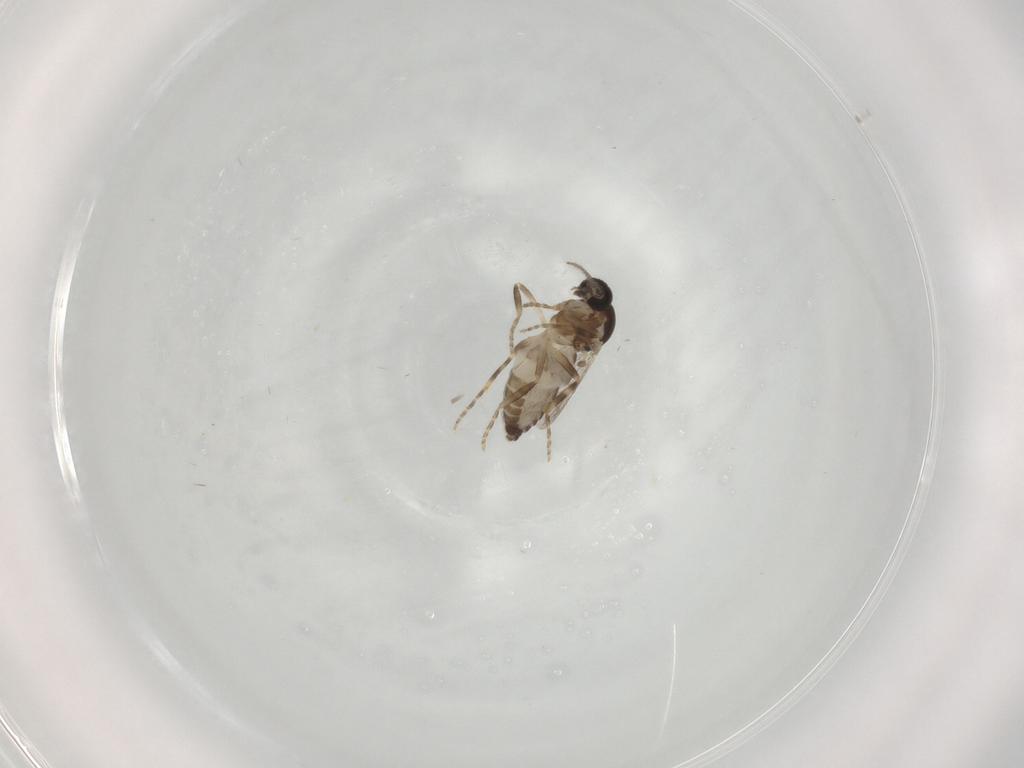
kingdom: Animalia
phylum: Arthropoda
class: Insecta
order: Diptera
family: Ceratopogonidae
